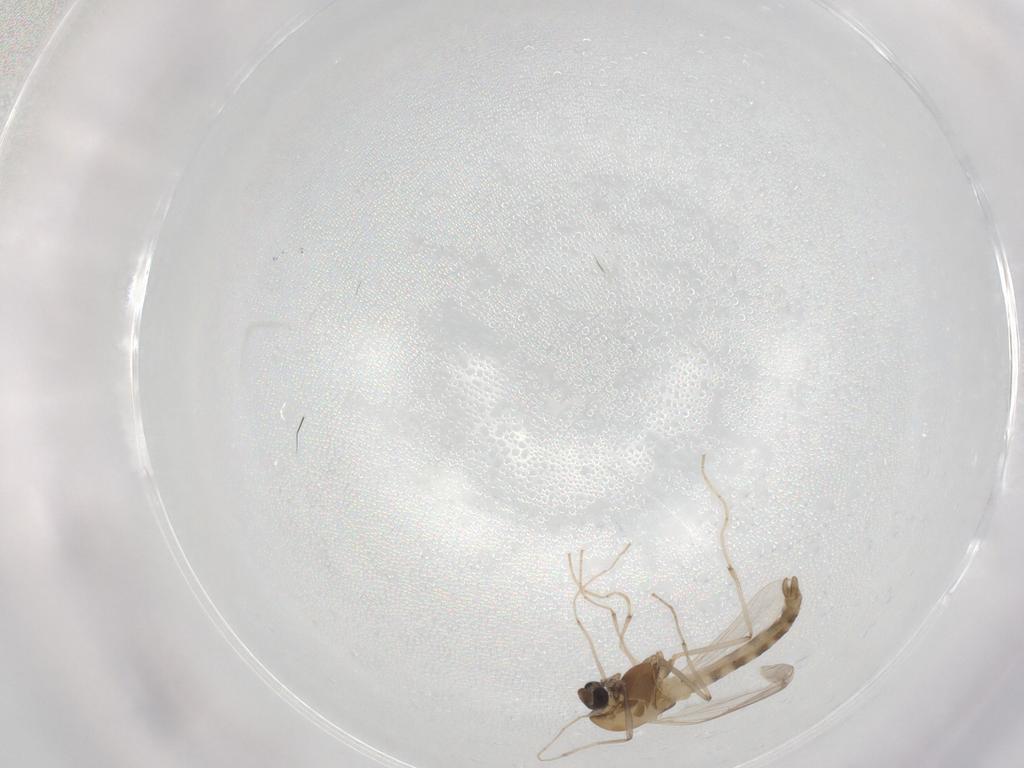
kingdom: Animalia
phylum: Arthropoda
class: Insecta
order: Diptera
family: Chironomidae
